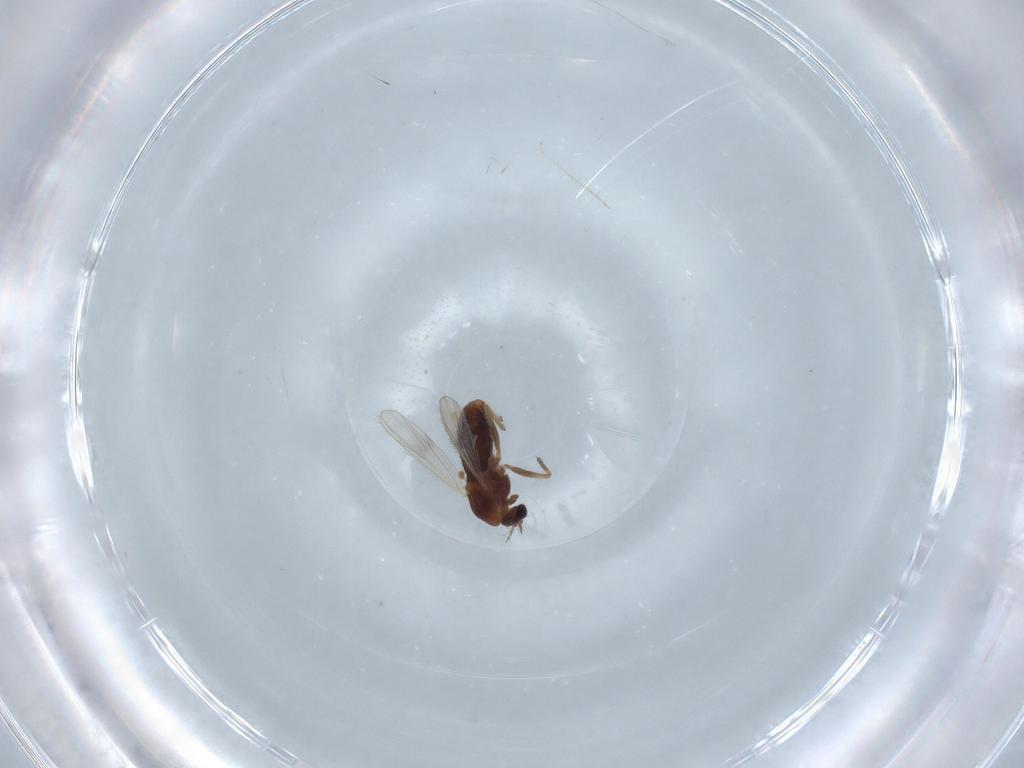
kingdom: Animalia
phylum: Arthropoda
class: Insecta
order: Diptera
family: Chironomidae
